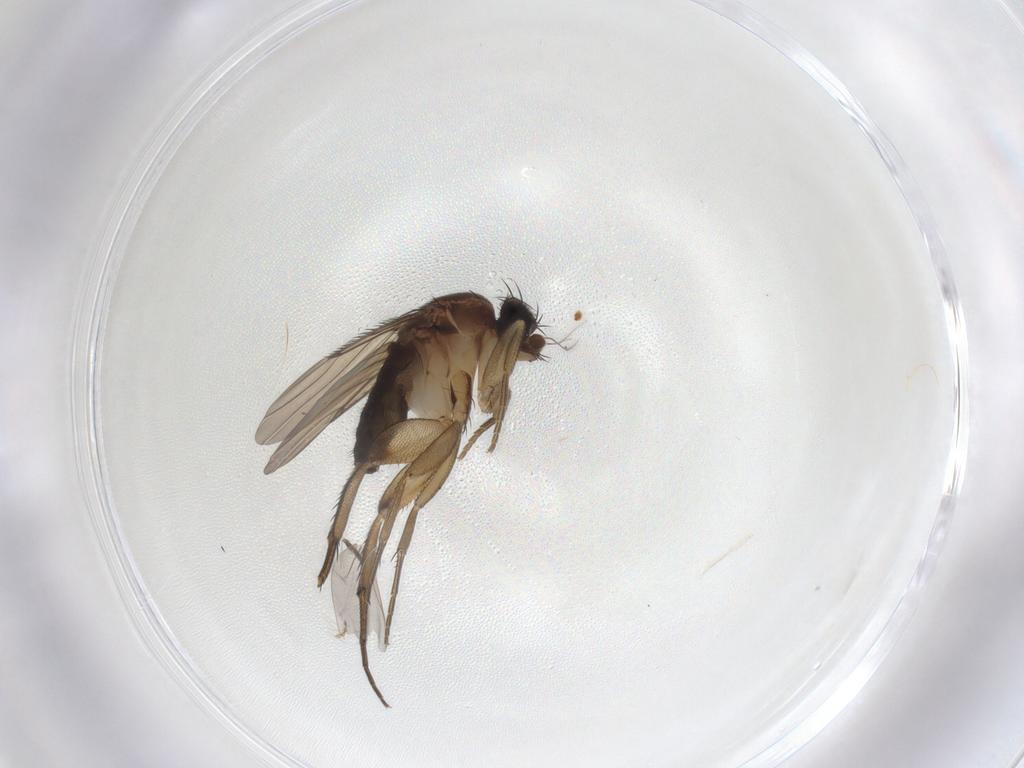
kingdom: Animalia
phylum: Arthropoda
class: Insecta
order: Diptera
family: Phoridae
